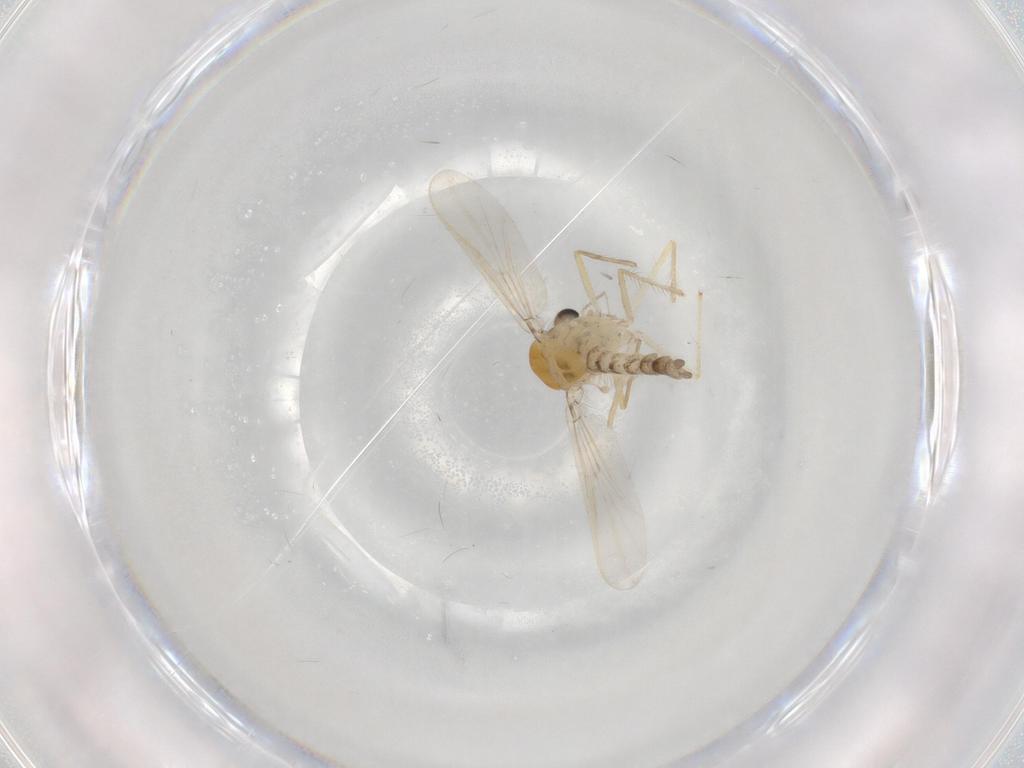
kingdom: Animalia
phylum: Arthropoda
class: Insecta
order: Diptera
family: Chironomidae
